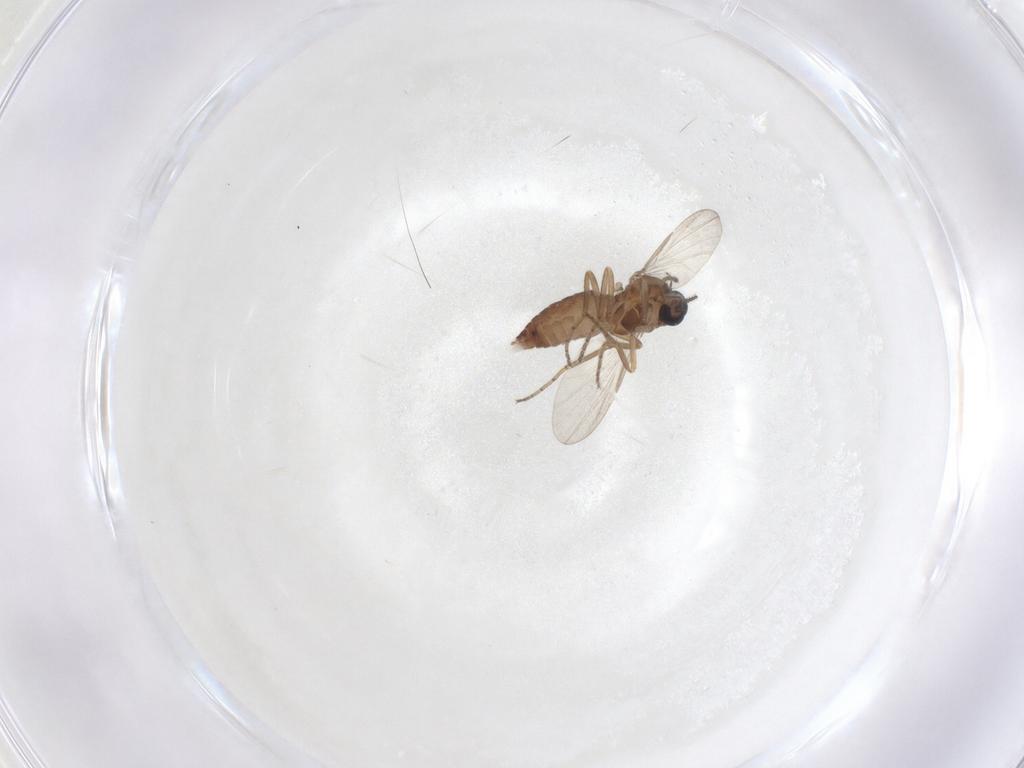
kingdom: Animalia
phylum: Arthropoda
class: Insecta
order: Diptera
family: Ceratopogonidae
